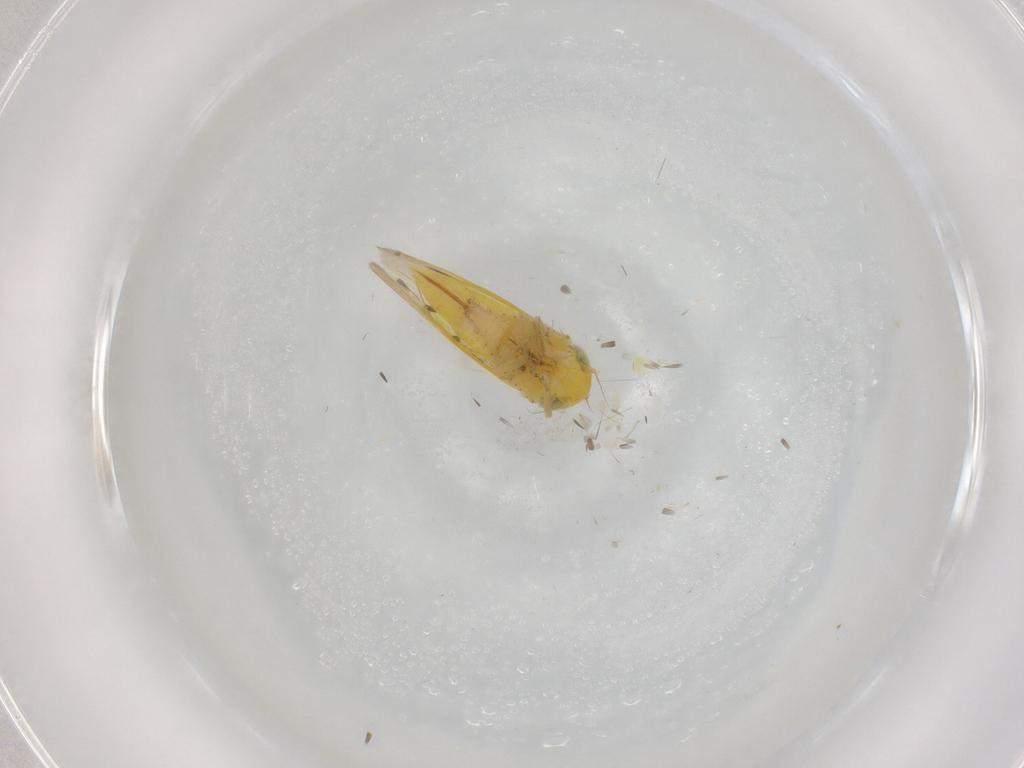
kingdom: Animalia
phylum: Arthropoda
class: Insecta
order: Hemiptera
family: Cicadellidae
